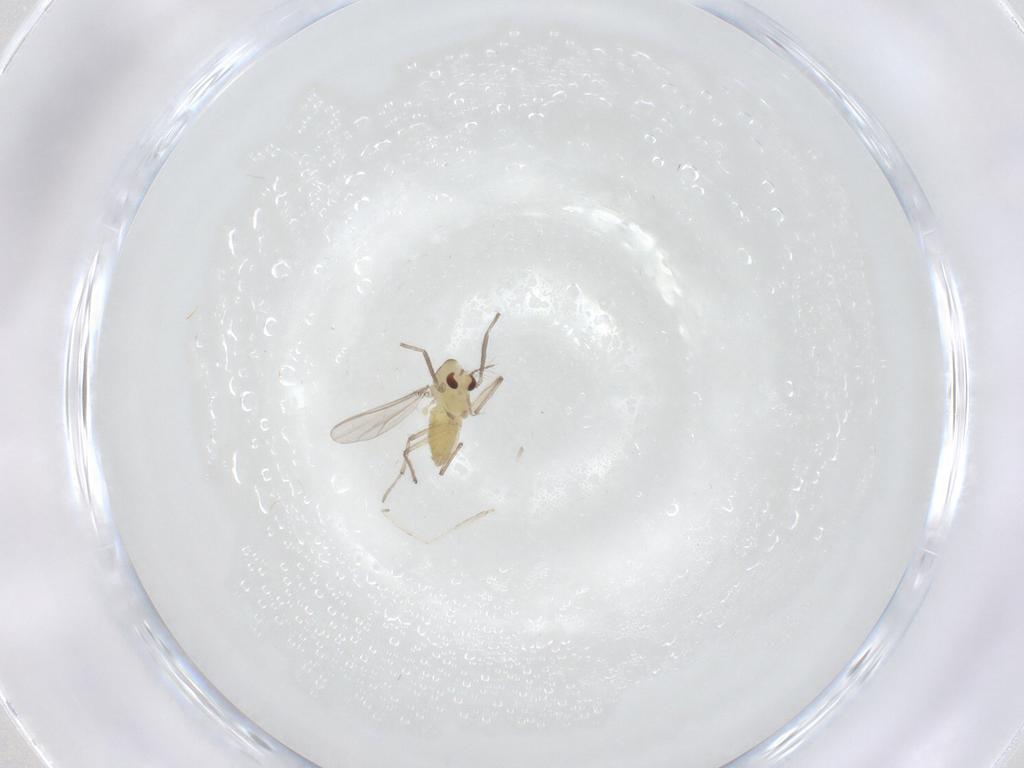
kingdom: Animalia
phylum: Arthropoda
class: Insecta
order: Diptera
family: Chironomidae
